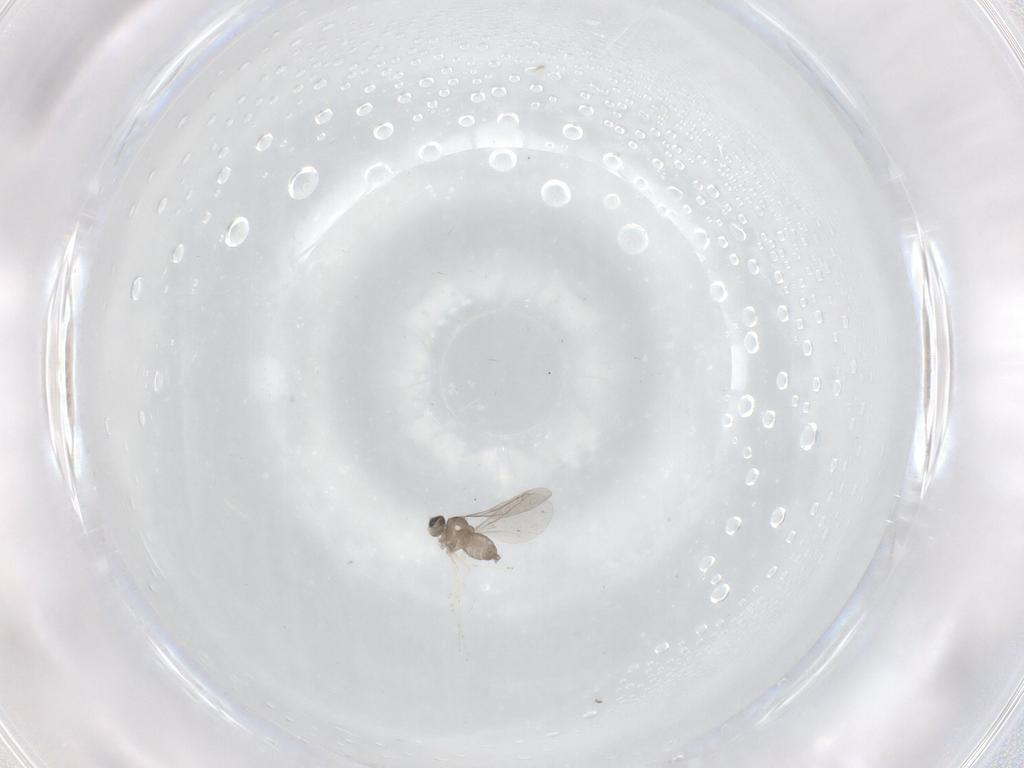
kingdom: Animalia
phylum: Arthropoda
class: Insecta
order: Diptera
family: Cecidomyiidae
